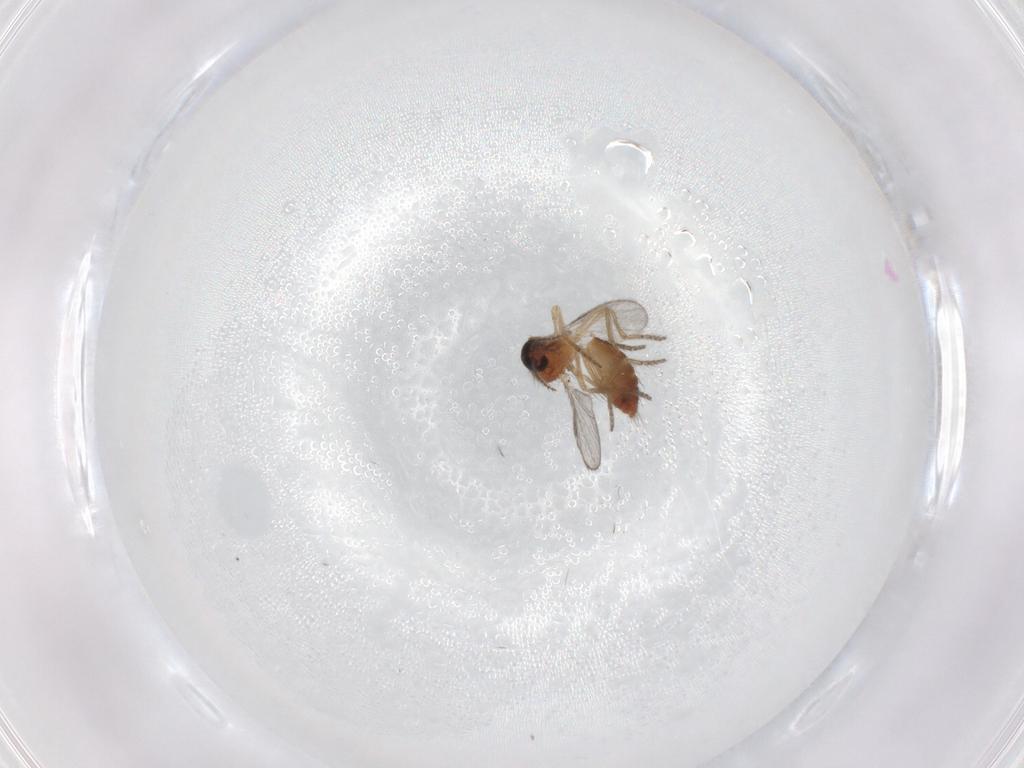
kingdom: Animalia
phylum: Arthropoda
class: Insecta
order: Diptera
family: Ceratopogonidae
